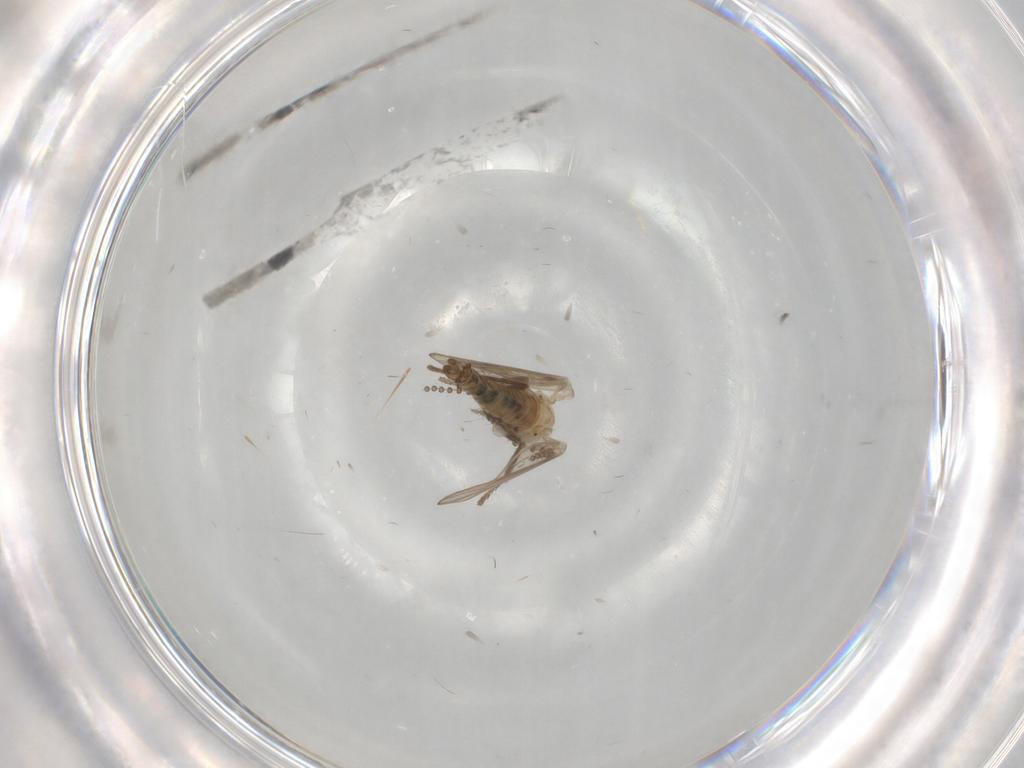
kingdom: Animalia
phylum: Arthropoda
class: Insecta
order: Diptera
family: Psychodidae
